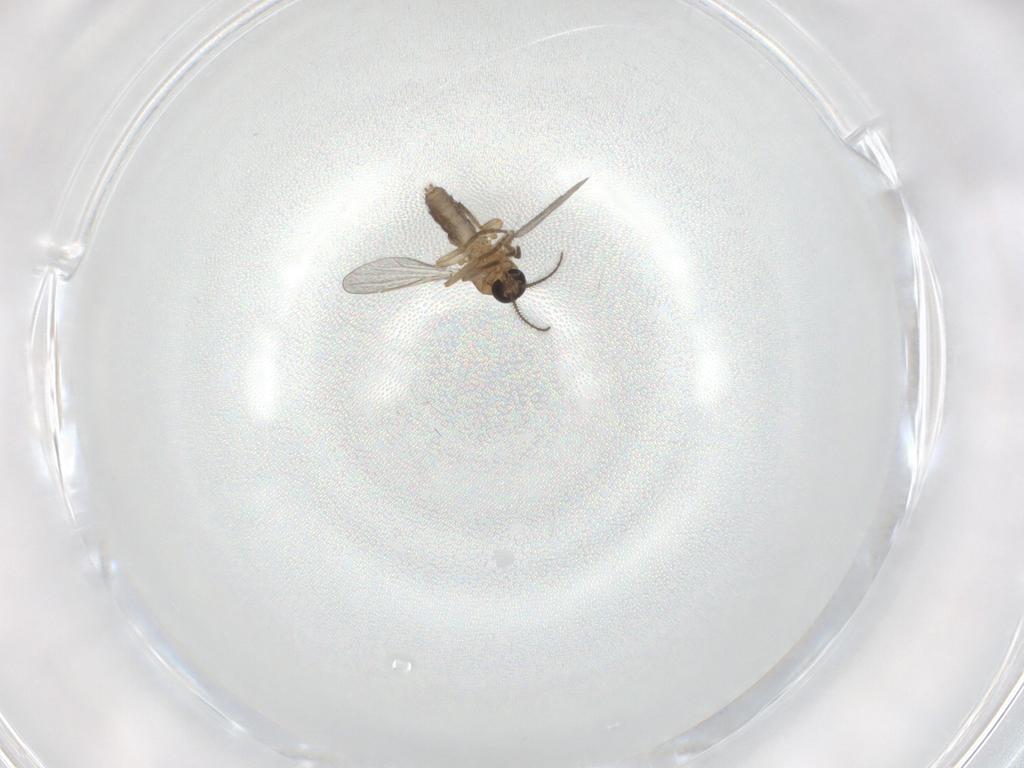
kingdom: Animalia
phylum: Arthropoda
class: Insecta
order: Diptera
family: Ceratopogonidae
